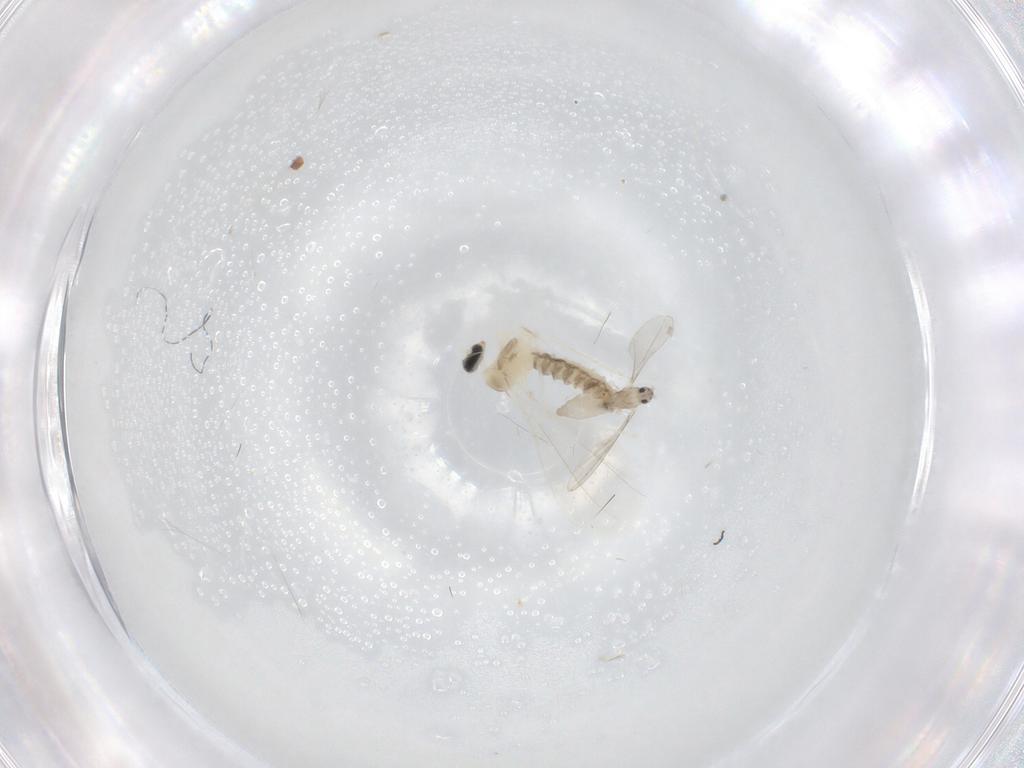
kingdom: Animalia
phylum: Arthropoda
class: Insecta
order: Diptera
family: Cecidomyiidae
